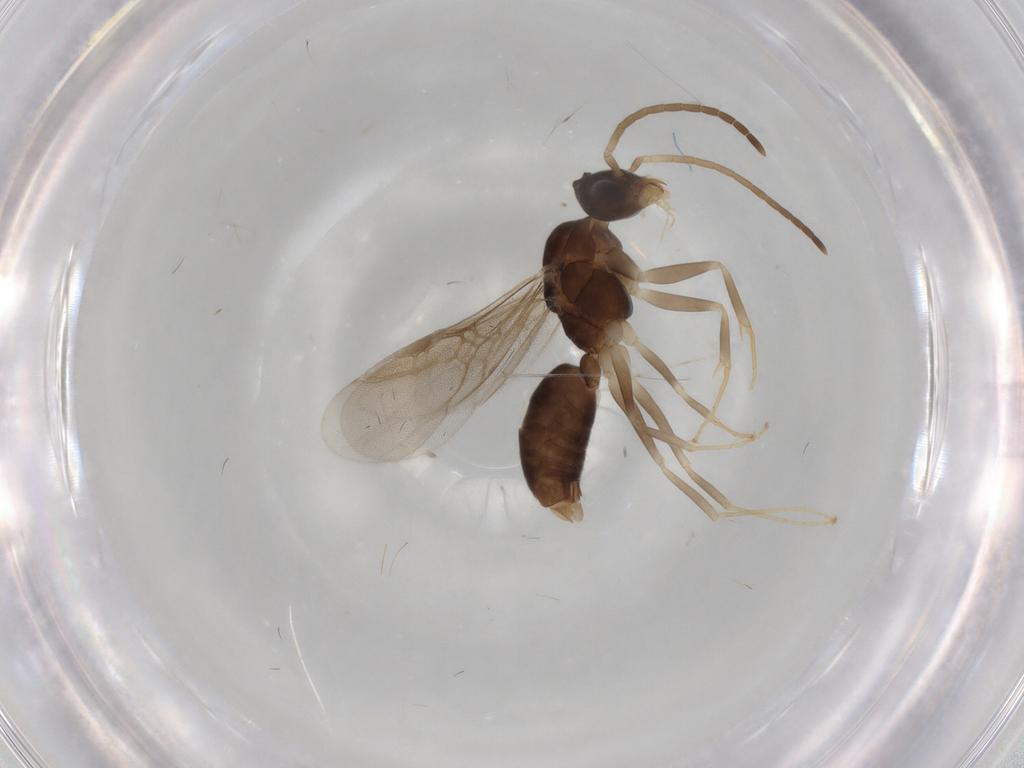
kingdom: Animalia
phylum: Arthropoda
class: Insecta
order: Hymenoptera
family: Formicidae
